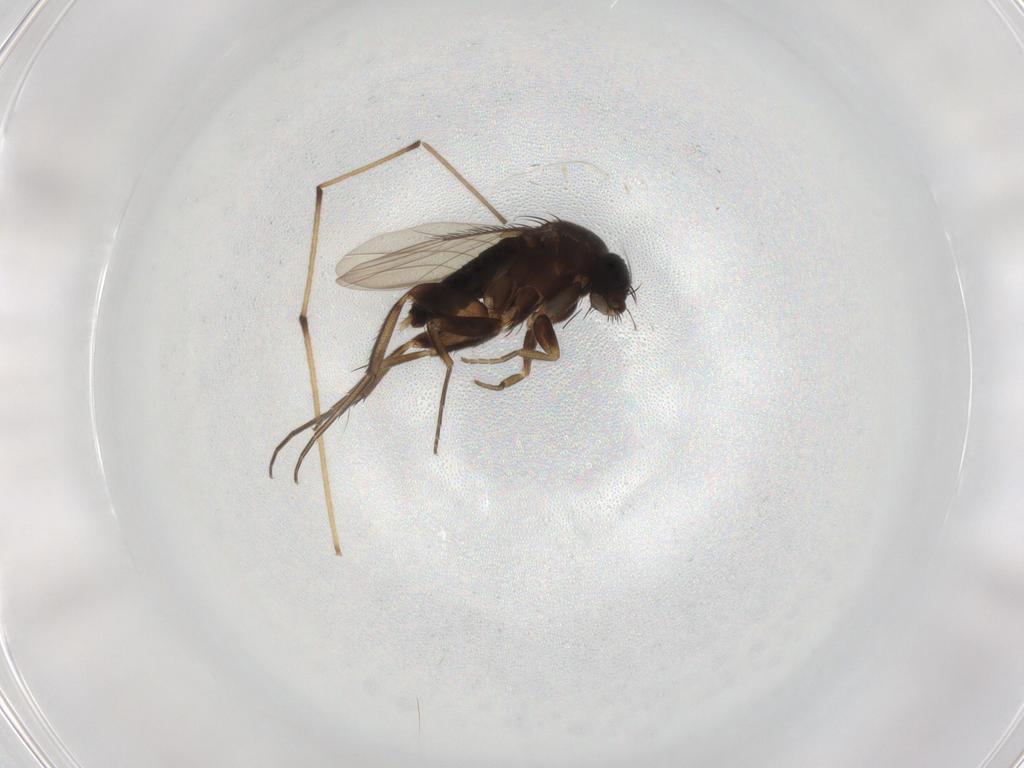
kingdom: Animalia
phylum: Arthropoda
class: Insecta
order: Diptera
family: Phoridae
